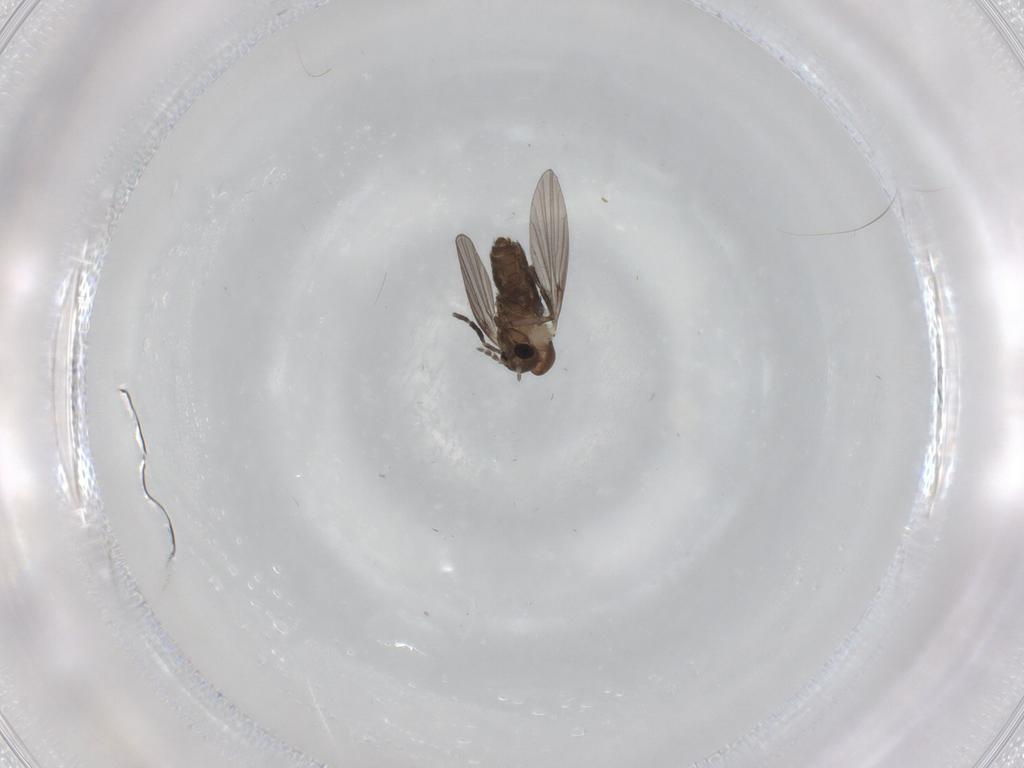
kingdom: Animalia
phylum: Arthropoda
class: Insecta
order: Diptera
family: Psychodidae
